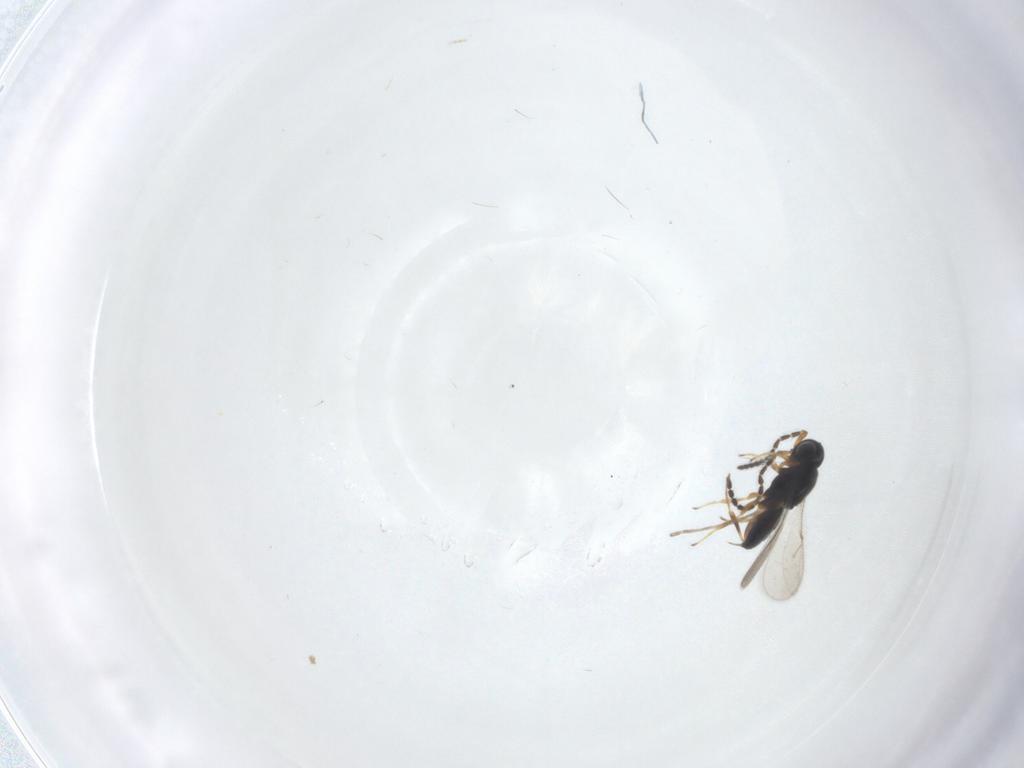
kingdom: Animalia
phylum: Arthropoda
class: Insecta
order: Hymenoptera
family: Scelionidae
